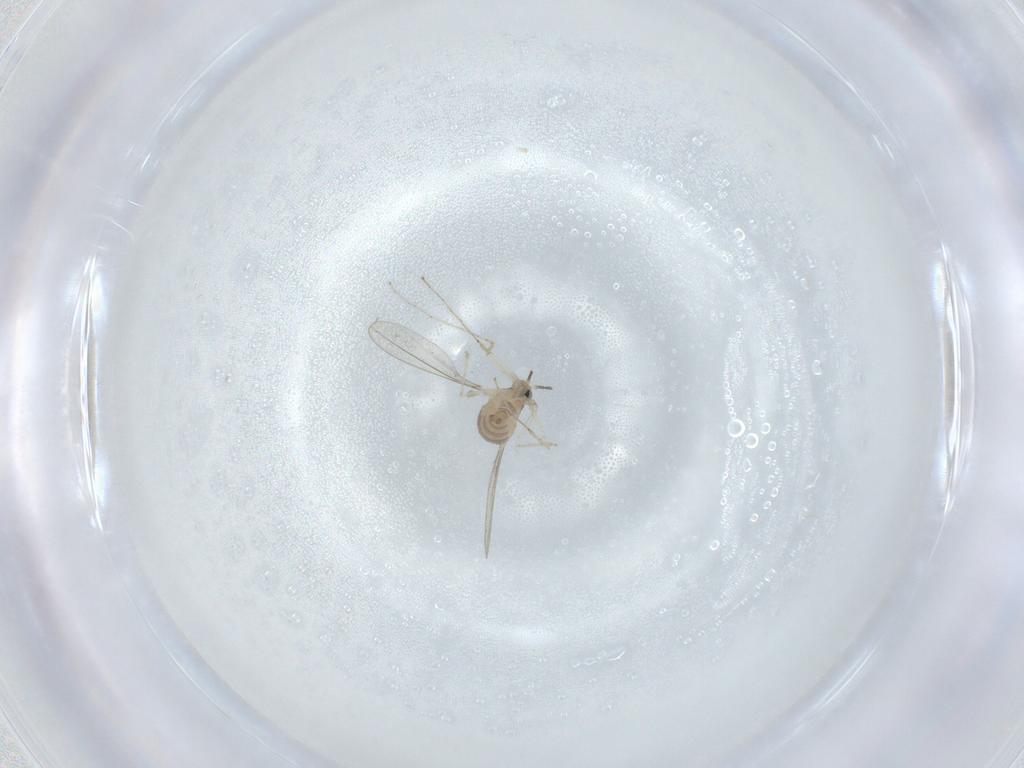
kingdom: Animalia
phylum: Arthropoda
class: Insecta
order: Diptera
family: Cecidomyiidae
